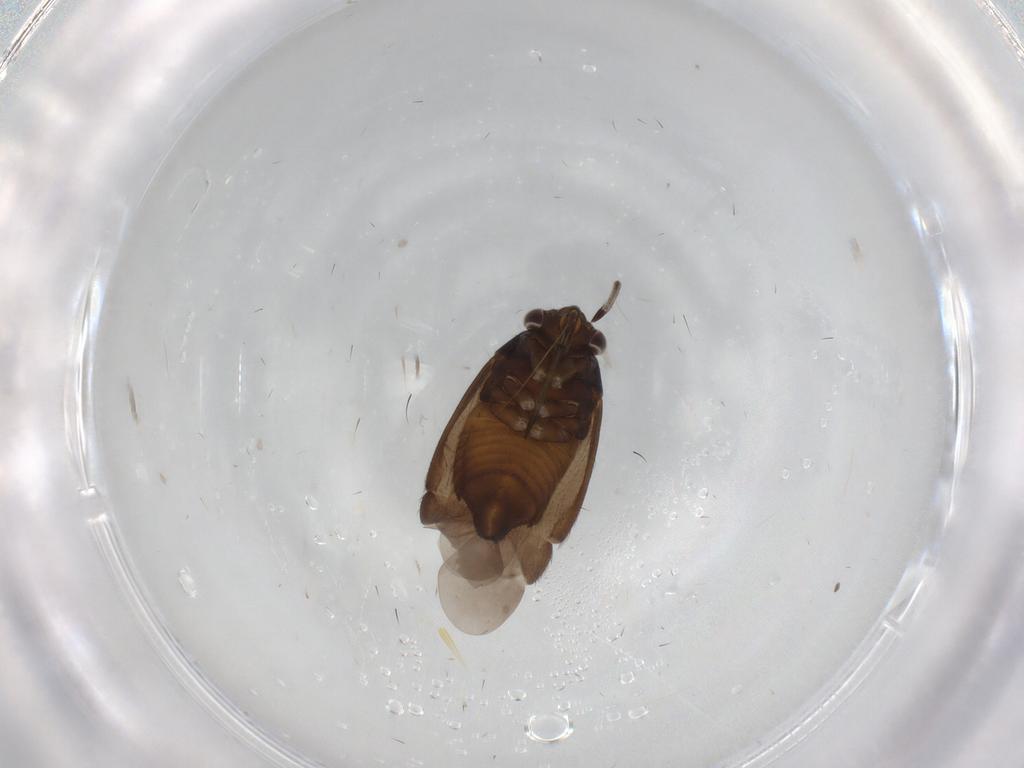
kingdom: Animalia
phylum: Arthropoda
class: Insecta
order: Hemiptera
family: Miridae
